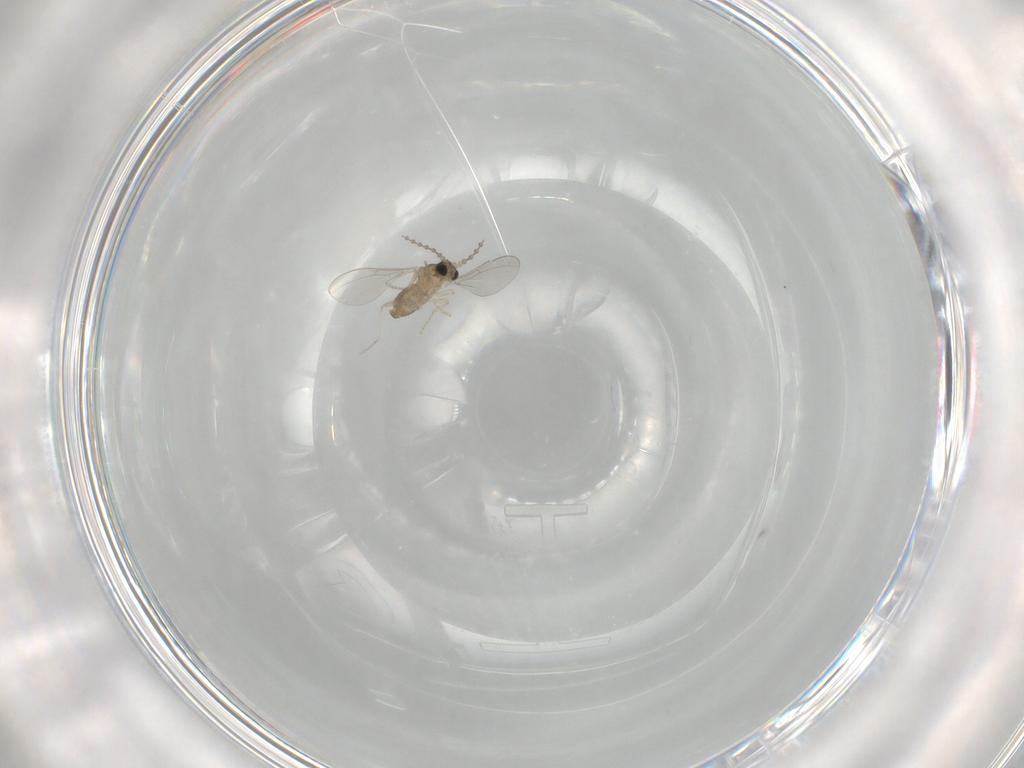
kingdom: Animalia
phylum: Arthropoda
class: Insecta
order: Diptera
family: Cecidomyiidae
